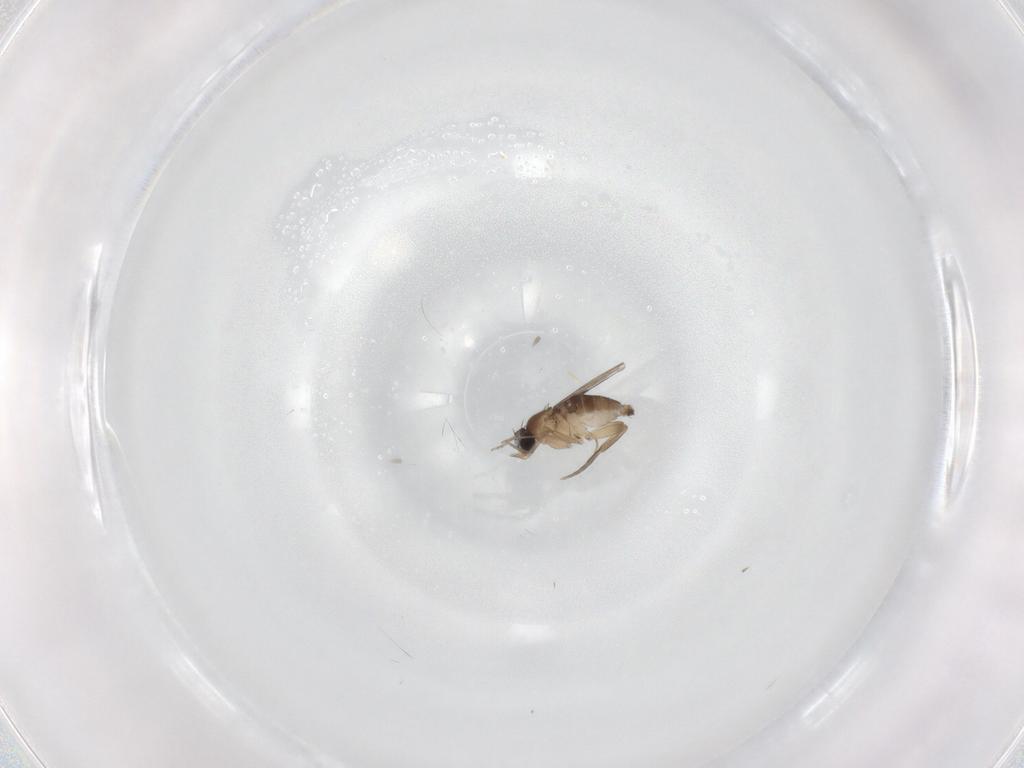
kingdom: Animalia
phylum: Arthropoda
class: Insecta
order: Diptera
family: Phoridae
